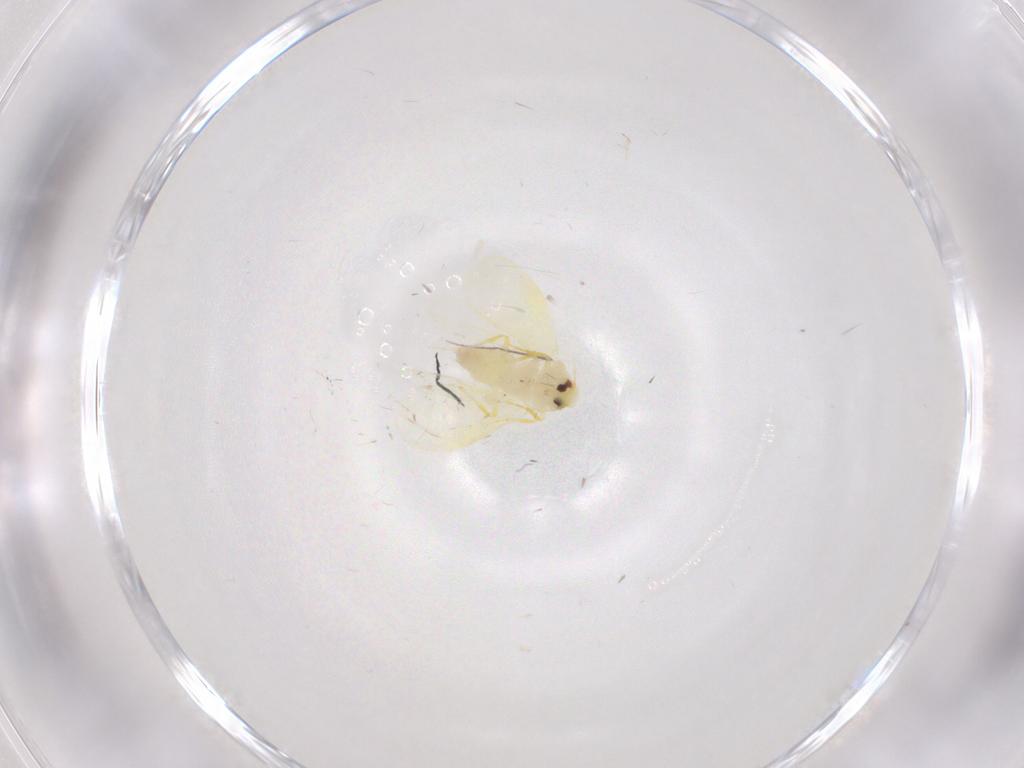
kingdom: Animalia
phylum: Arthropoda
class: Insecta
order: Hemiptera
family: Aleyrodidae
